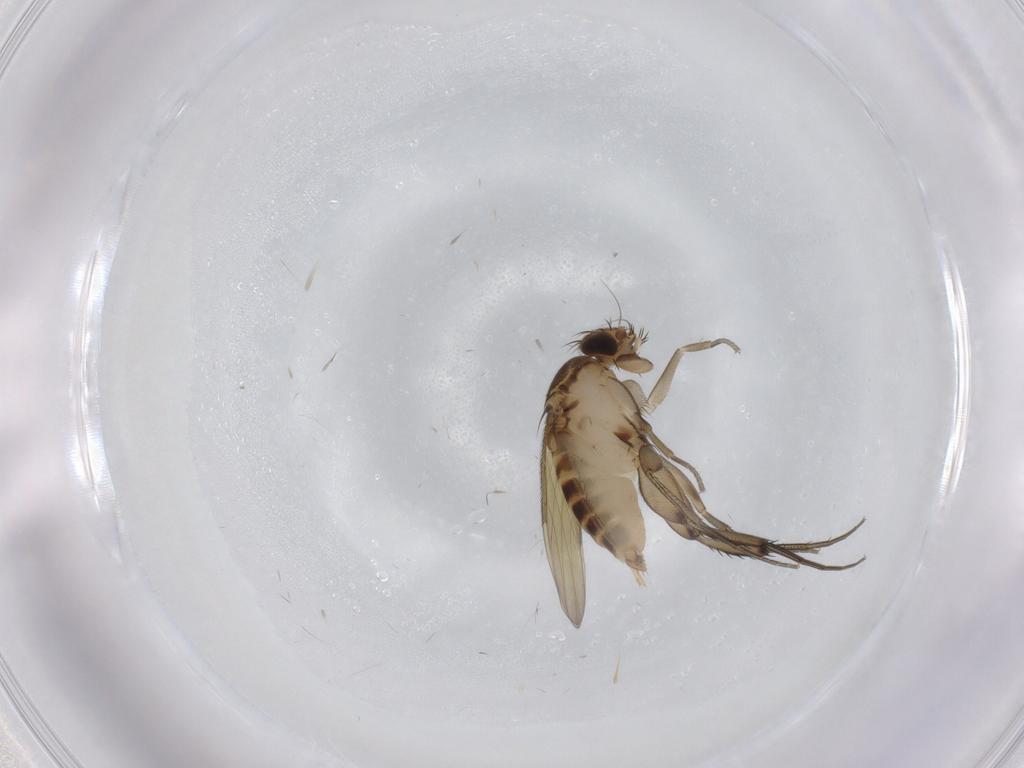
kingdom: Animalia
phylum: Arthropoda
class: Insecta
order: Diptera
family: Phoridae
